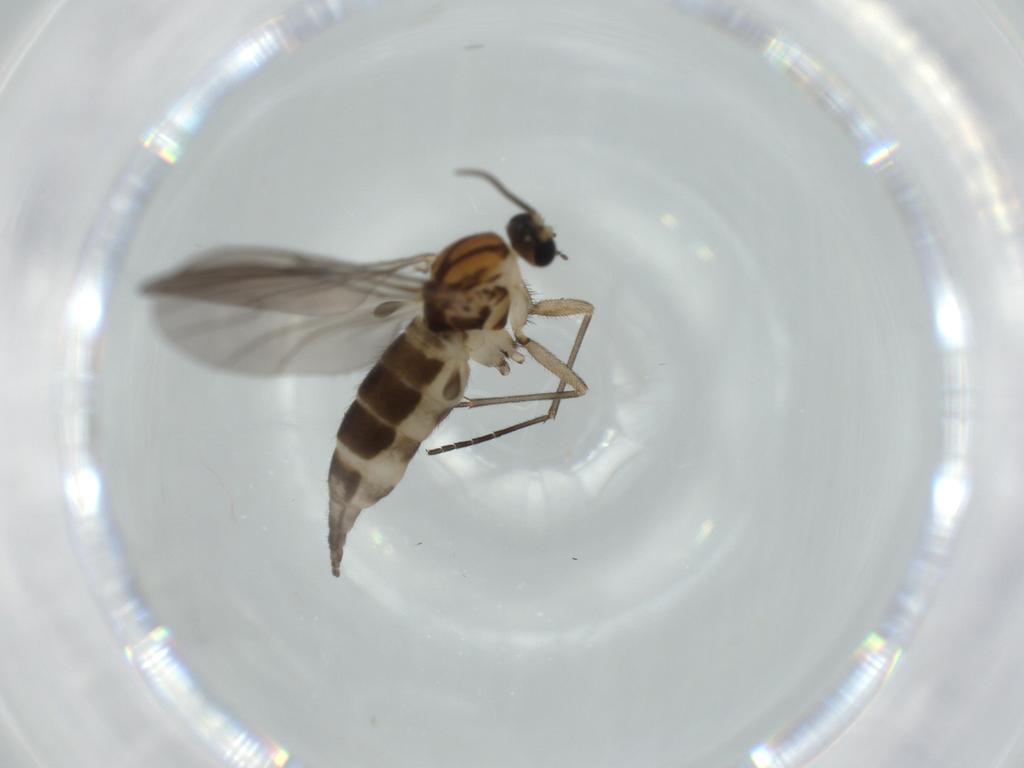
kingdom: Animalia
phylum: Arthropoda
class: Insecta
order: Diptera
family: Sciaridae
